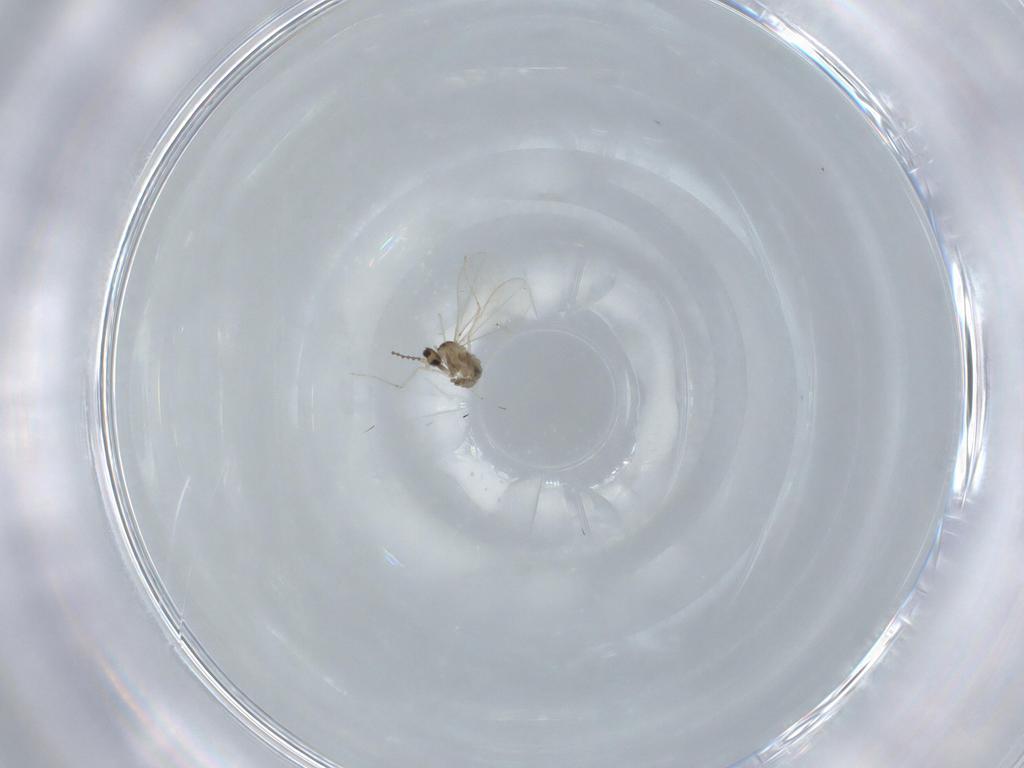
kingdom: Animalia
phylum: Arthropoda
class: Insecta
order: Diptera
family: Cecidomyiidae
